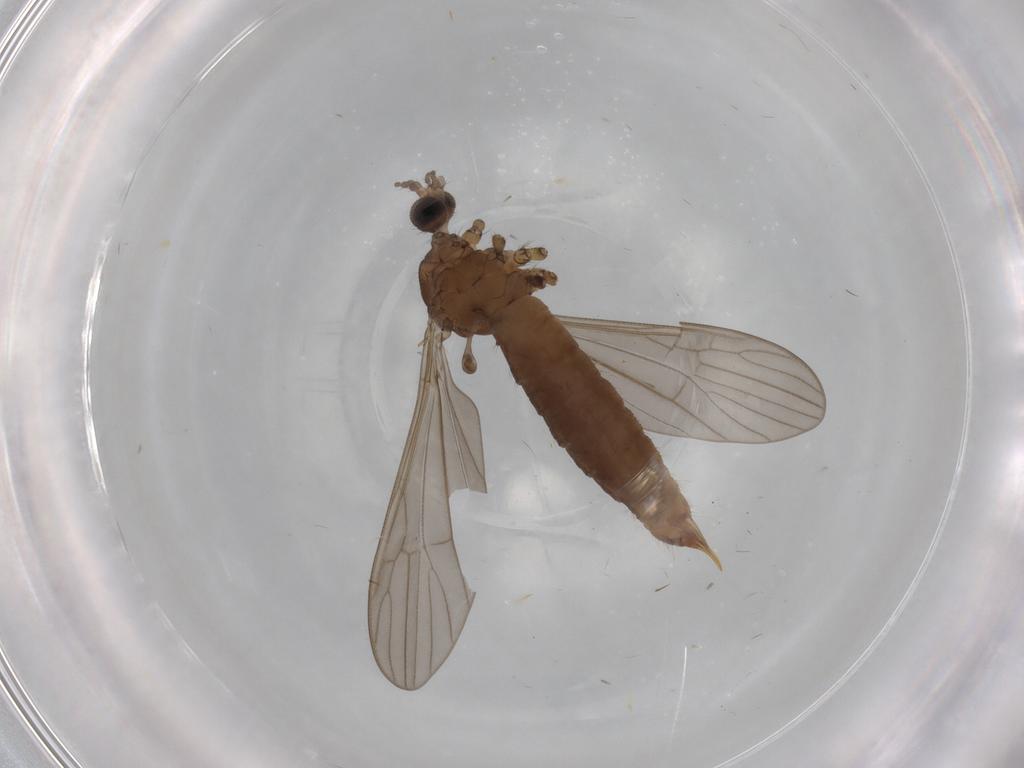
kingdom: Animalia
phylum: Arthropoda
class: Insecta
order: Diptera
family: Limoniidae
